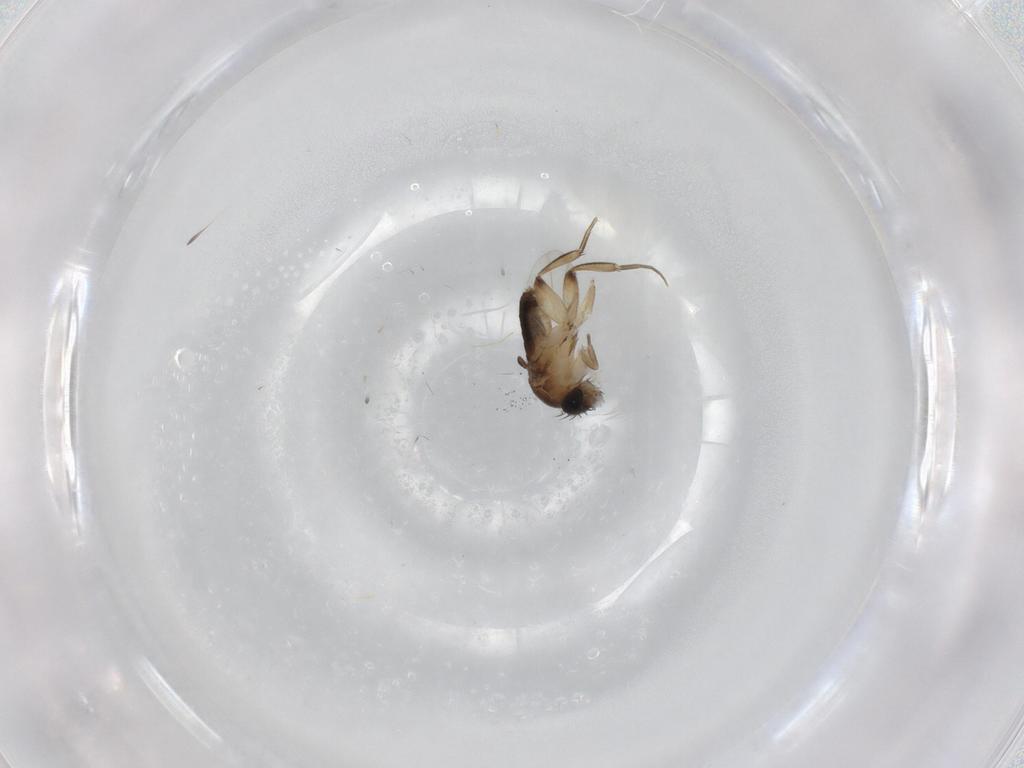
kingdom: Animalia
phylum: Arthropoda
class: Insecta
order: Diptera
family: Phoridae
